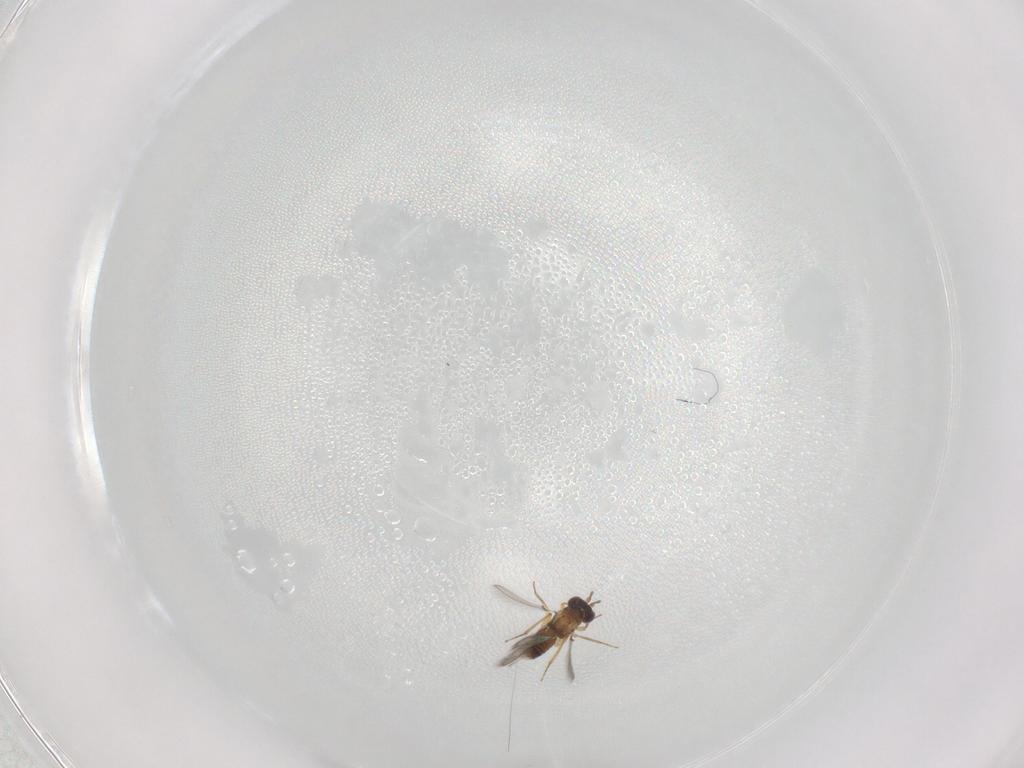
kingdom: Animalia
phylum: Arthropoda
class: Insecta
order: Hymenoptera
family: Mymaridae
